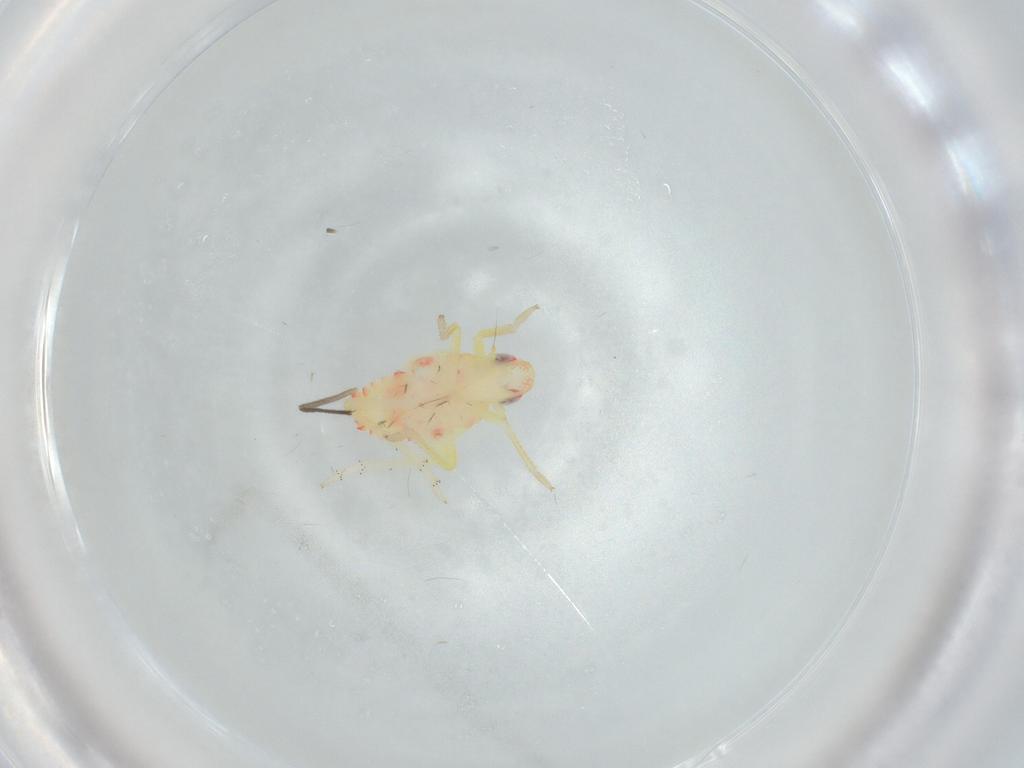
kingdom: Animalia
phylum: Arthropoda
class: Insecta
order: Hemiptera
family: Tropiduchidae
